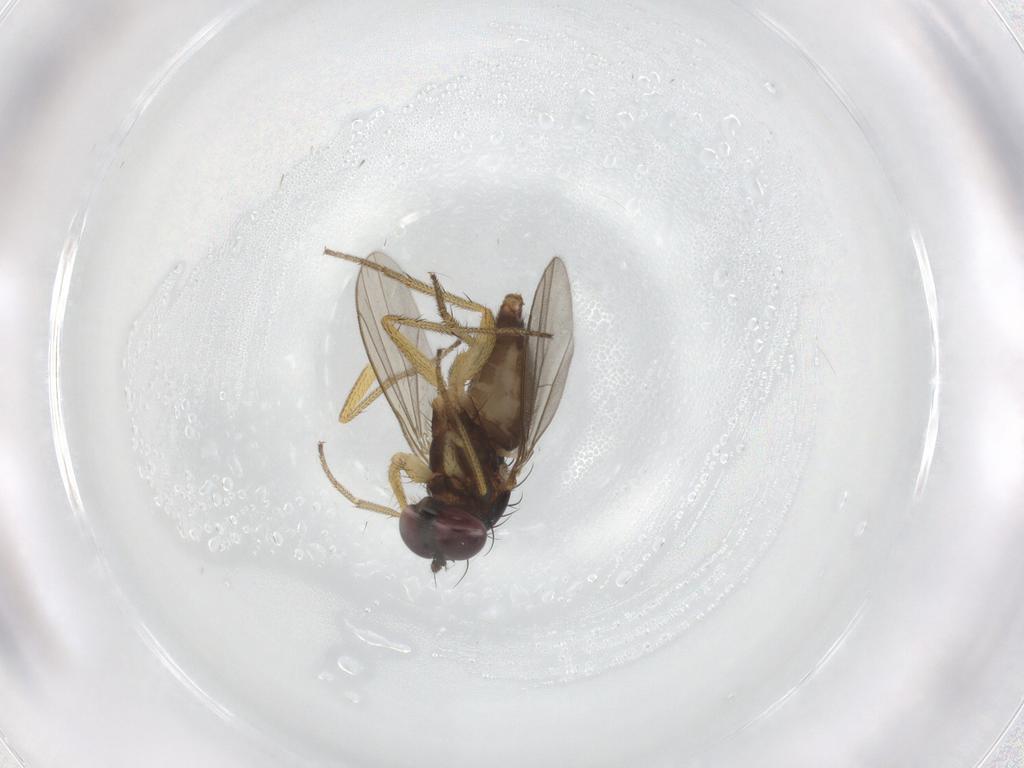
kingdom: Animalia
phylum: Arthropoda
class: Insecta
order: Diptera
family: Dolichopodidae
